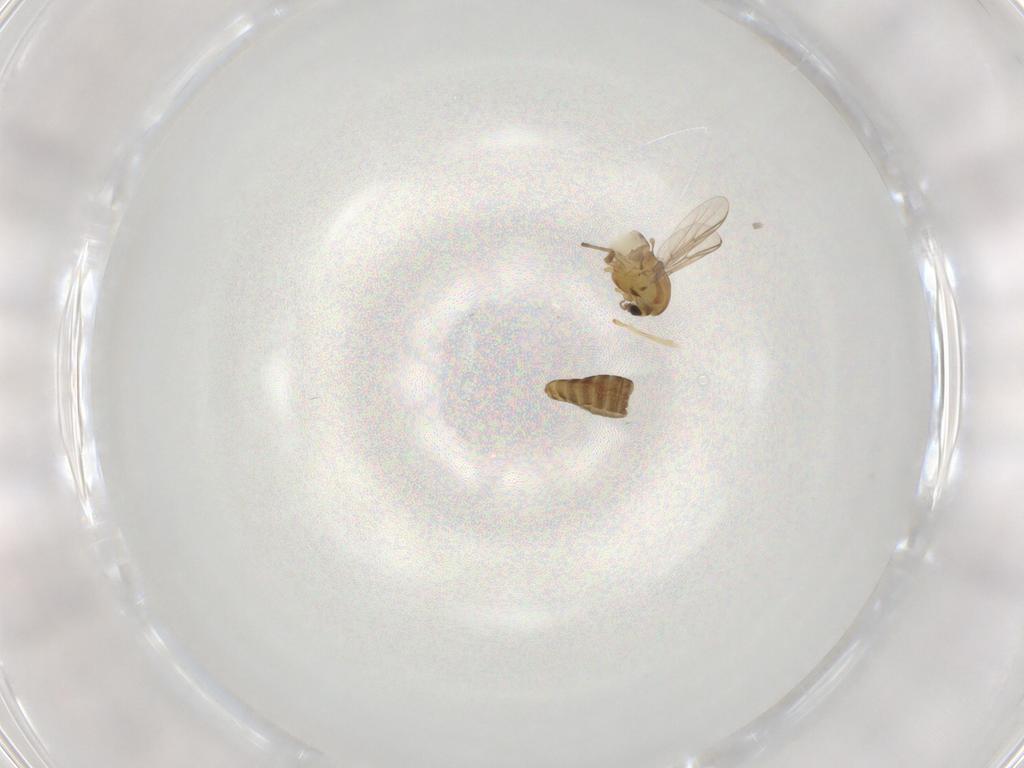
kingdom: Animalia
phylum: Arthropoda
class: Insecta
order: Diptera
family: Chironomidae
